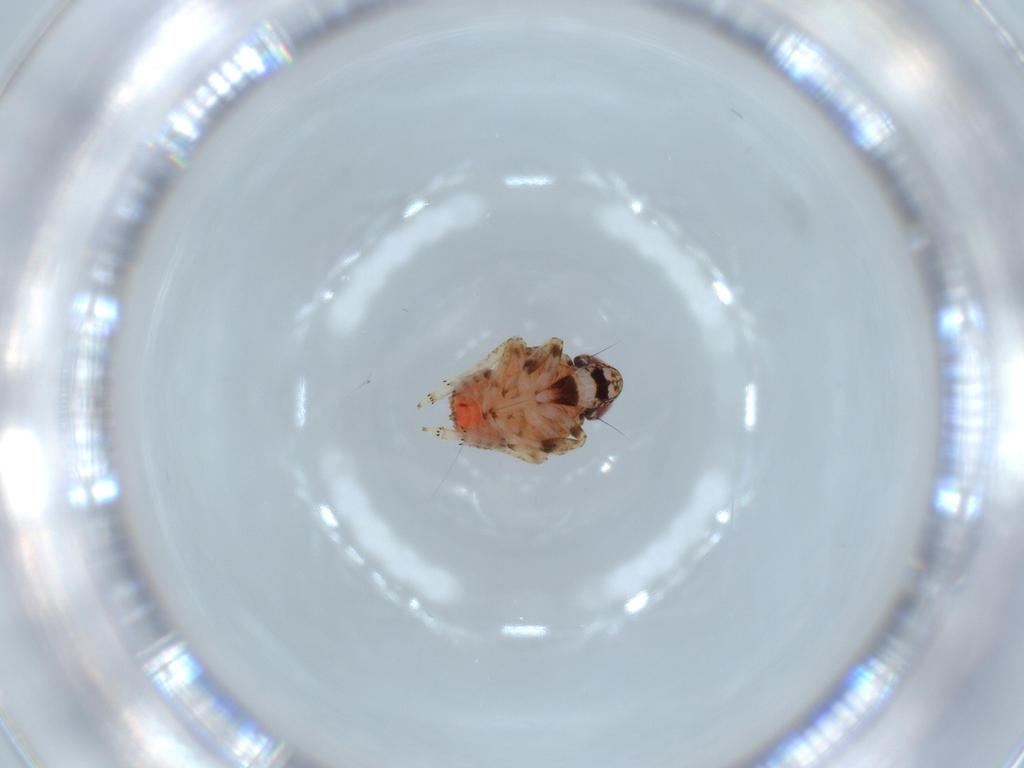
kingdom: Animalia
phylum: Arthropoda
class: Insecta
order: Hemiptera
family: Issidae
